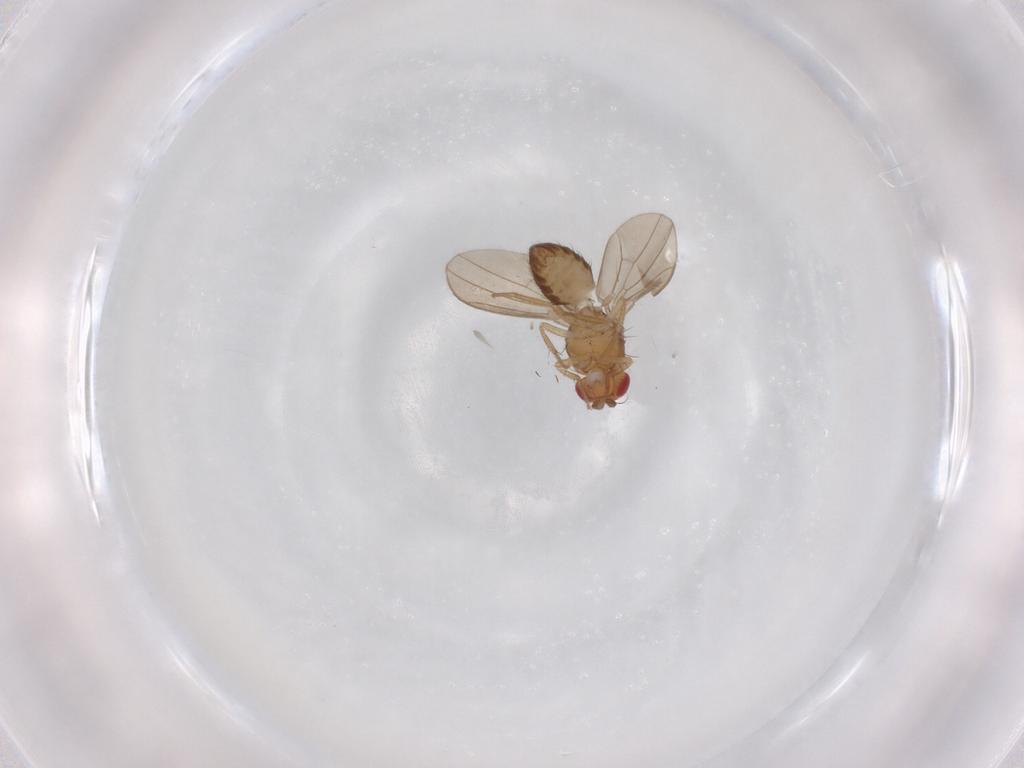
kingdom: Animalia
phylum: Arthropoda
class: Insecta
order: Diptera
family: Drosophilidae
